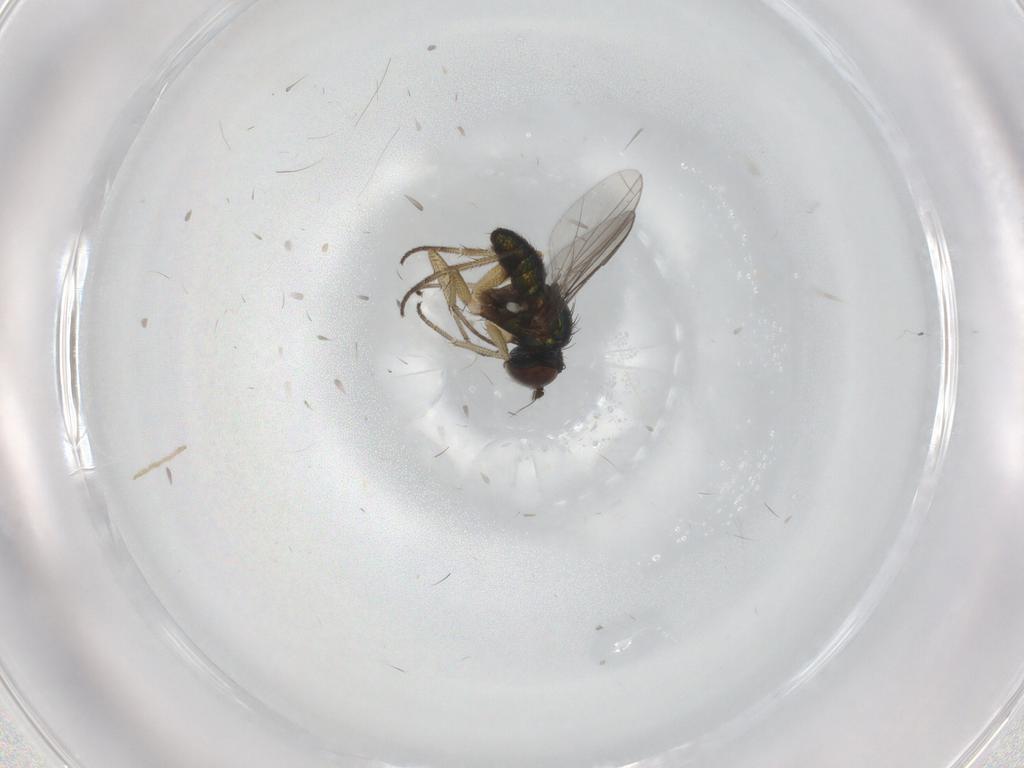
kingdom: Animalia
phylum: Arthropoda
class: Insecta
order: Diptera
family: Dolichopodidae
